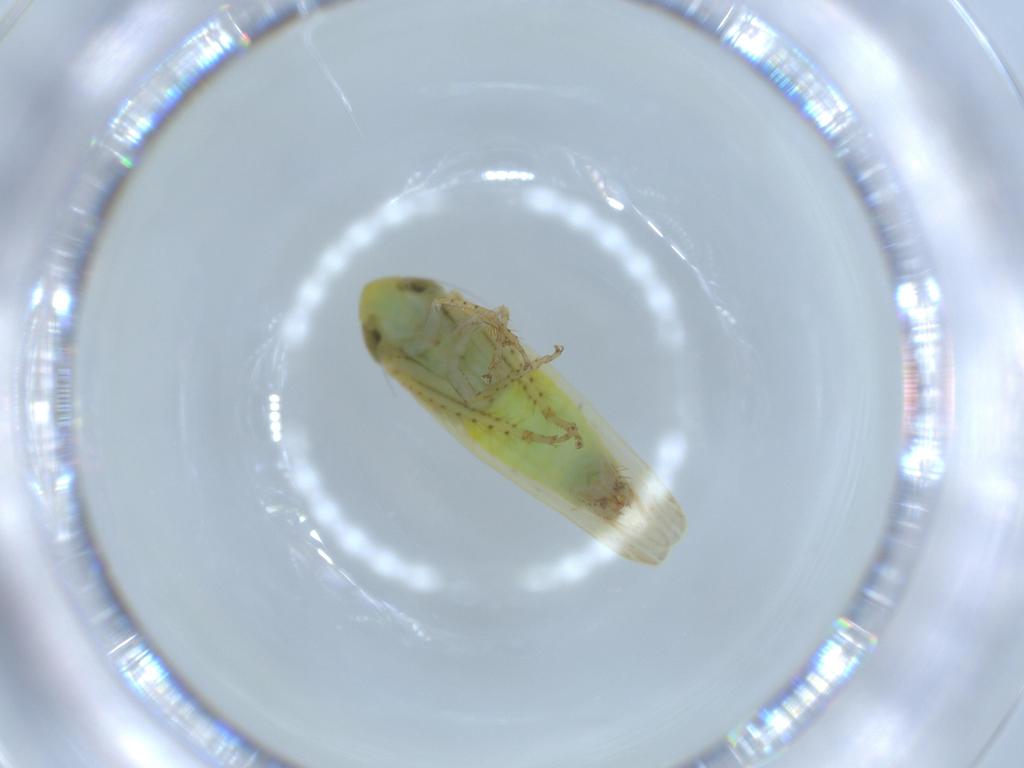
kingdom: Animalia
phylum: Arthropoda
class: Insecta
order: Hemiptera
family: Cicadellidae
